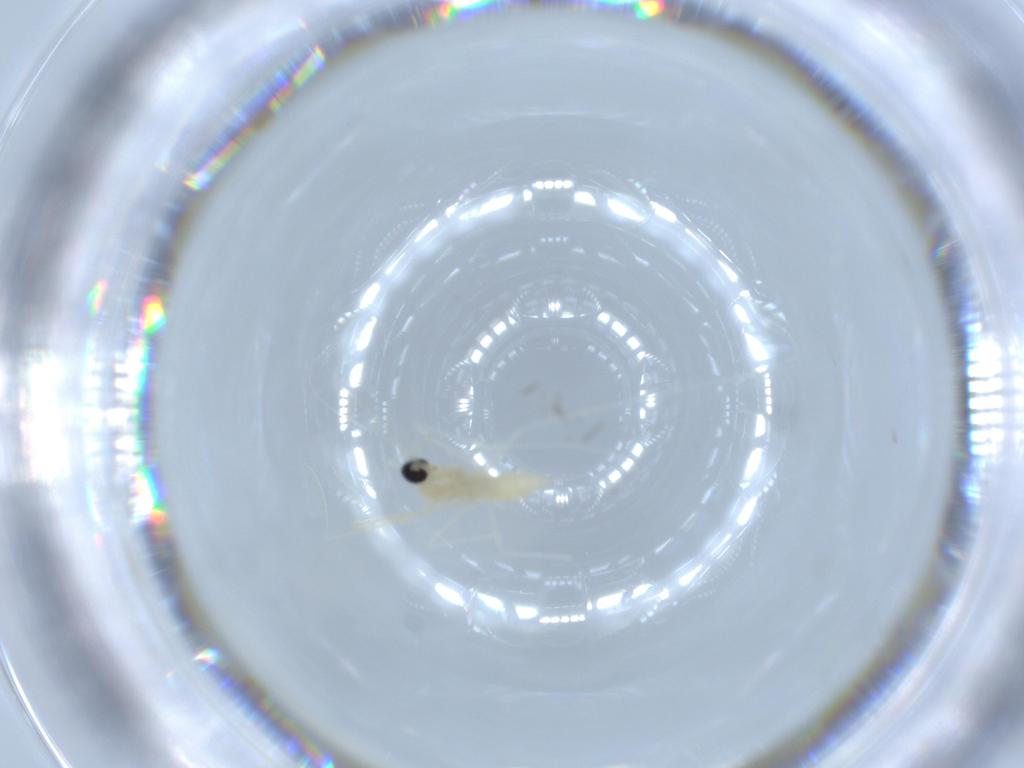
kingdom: Animalia
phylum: Arthropoda
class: Insecta
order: Diptera
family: Cecidomyiidae
